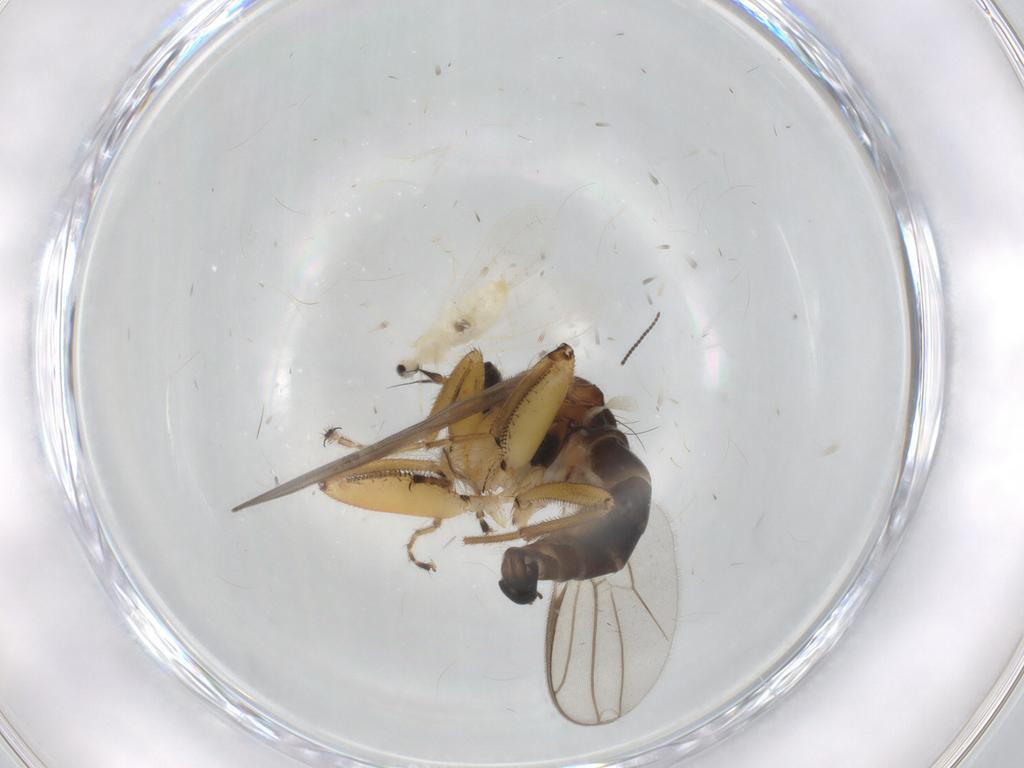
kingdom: Animalia
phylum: Arthropoda
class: Insecta
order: Diptera
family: Hybotidae
